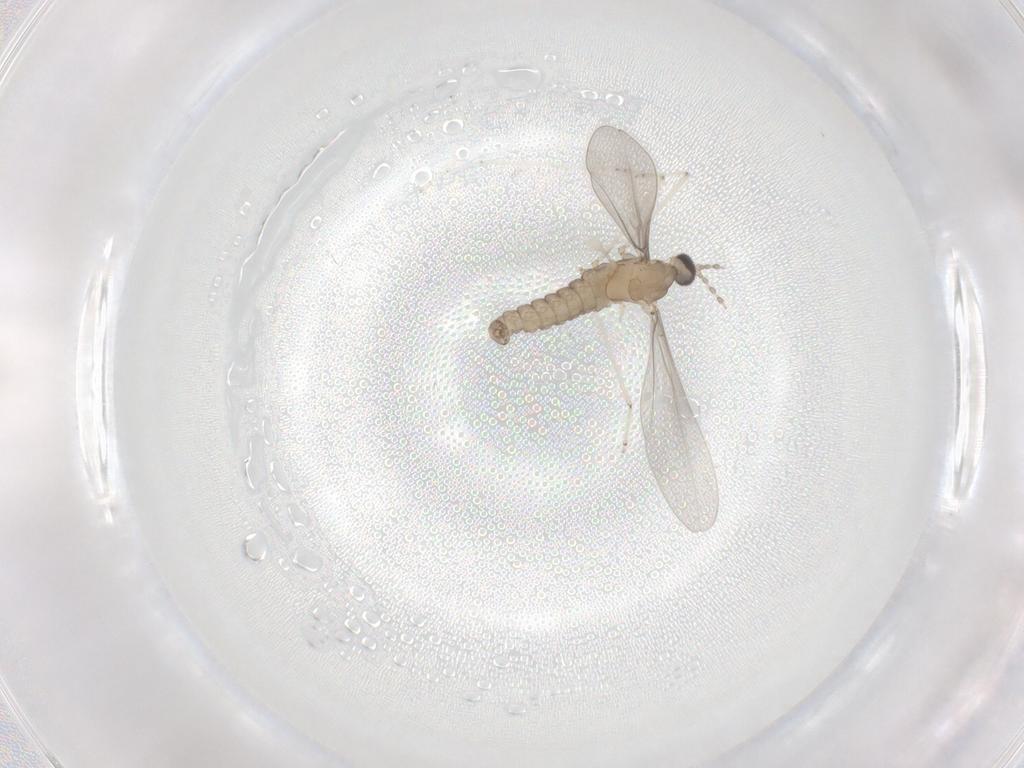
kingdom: Animalia
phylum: Arthropoda
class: Insecta
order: Diptera
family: Cecidomyiidae
